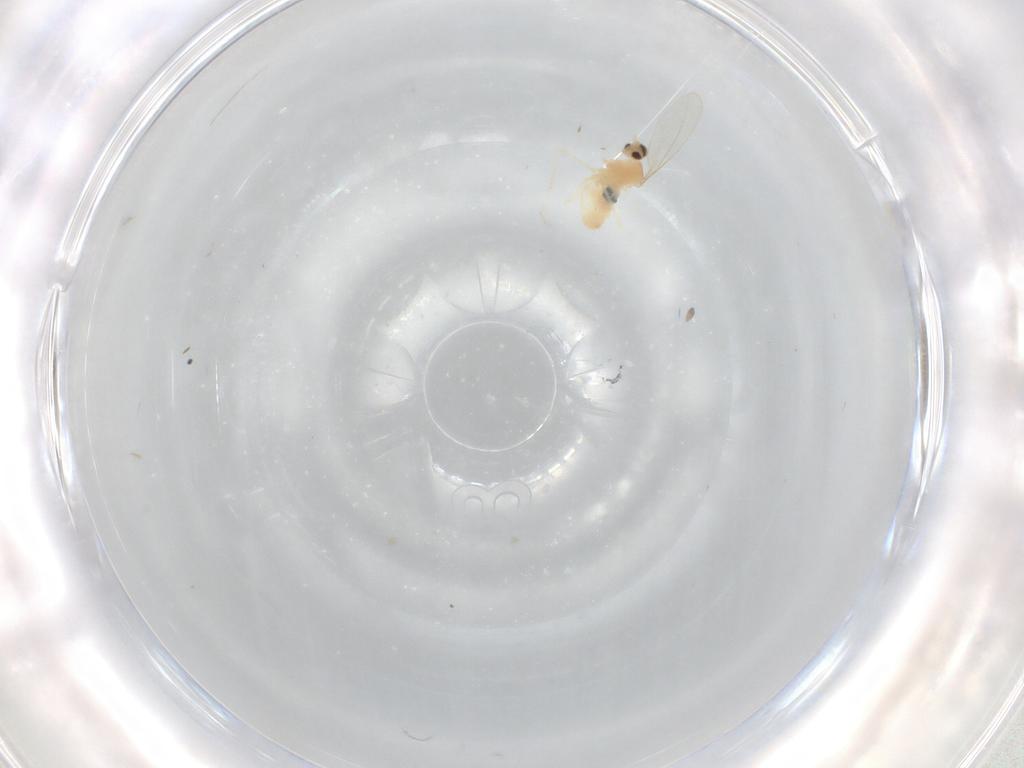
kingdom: Animalia
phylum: Arthropoda
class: Insecta
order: Diptera
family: Cecidomyiidae
